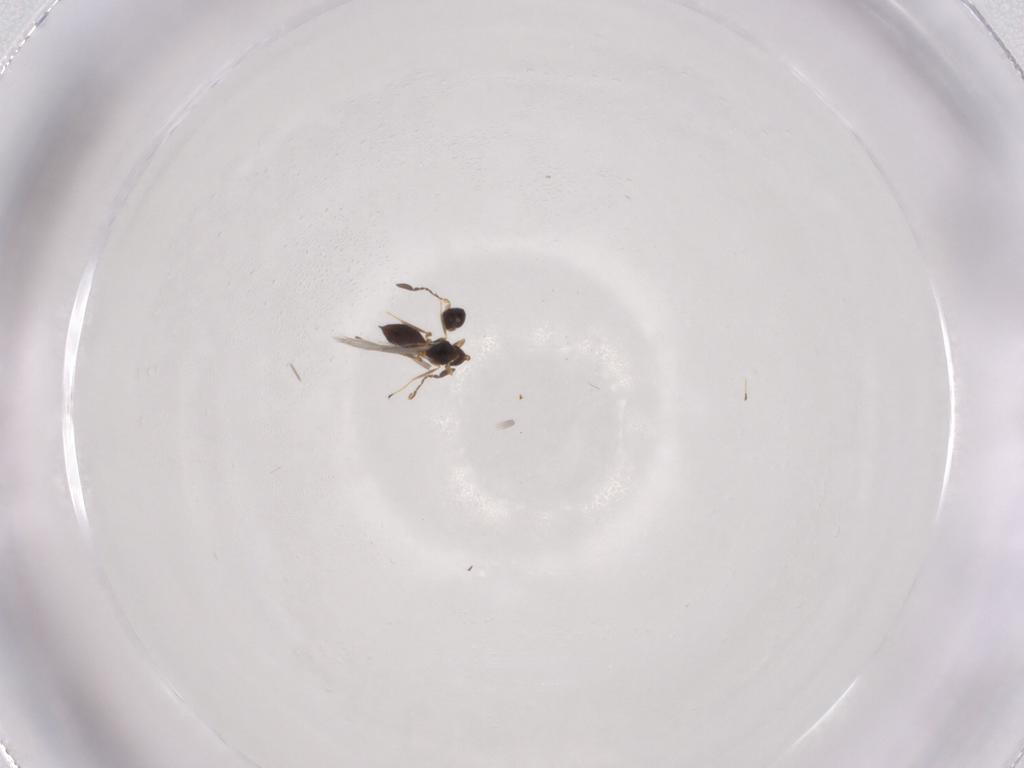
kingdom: Animalia
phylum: Arthropoda
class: Insecta
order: Hymenoptera
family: Mymaridae
